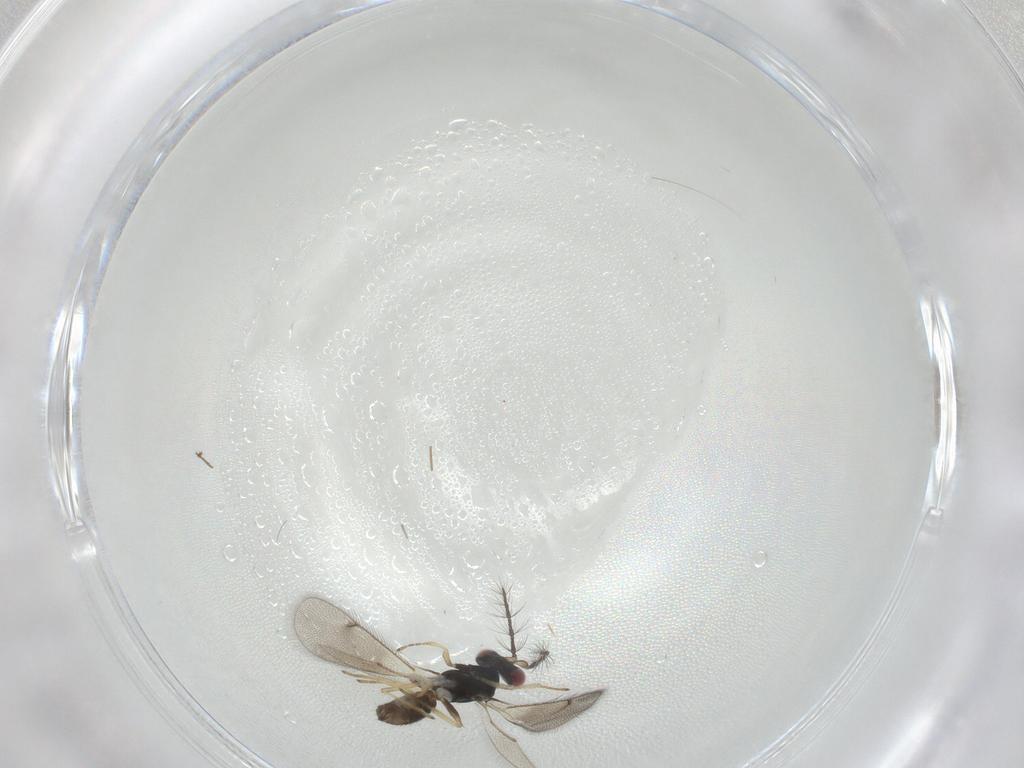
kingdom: Animalia
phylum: Arthropoda
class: Insecta
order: Hymenoptera
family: Eulophidae
